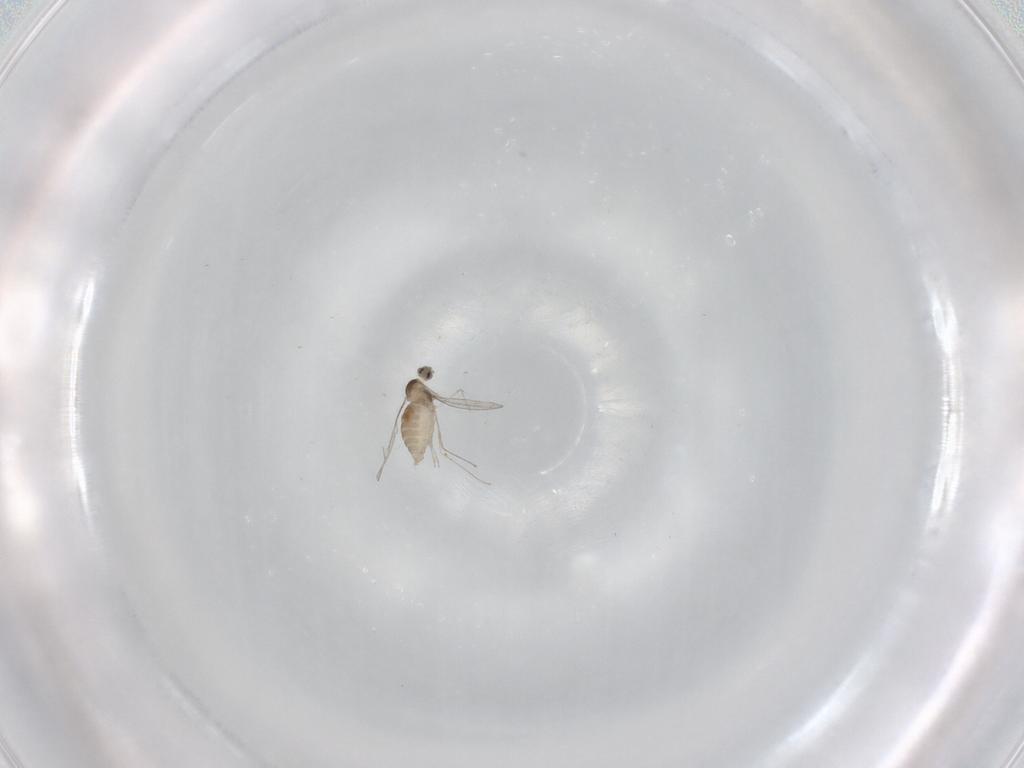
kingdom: Animalia
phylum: Arthropoda
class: Insecta
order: Diptera
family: Cecidomyiidae
